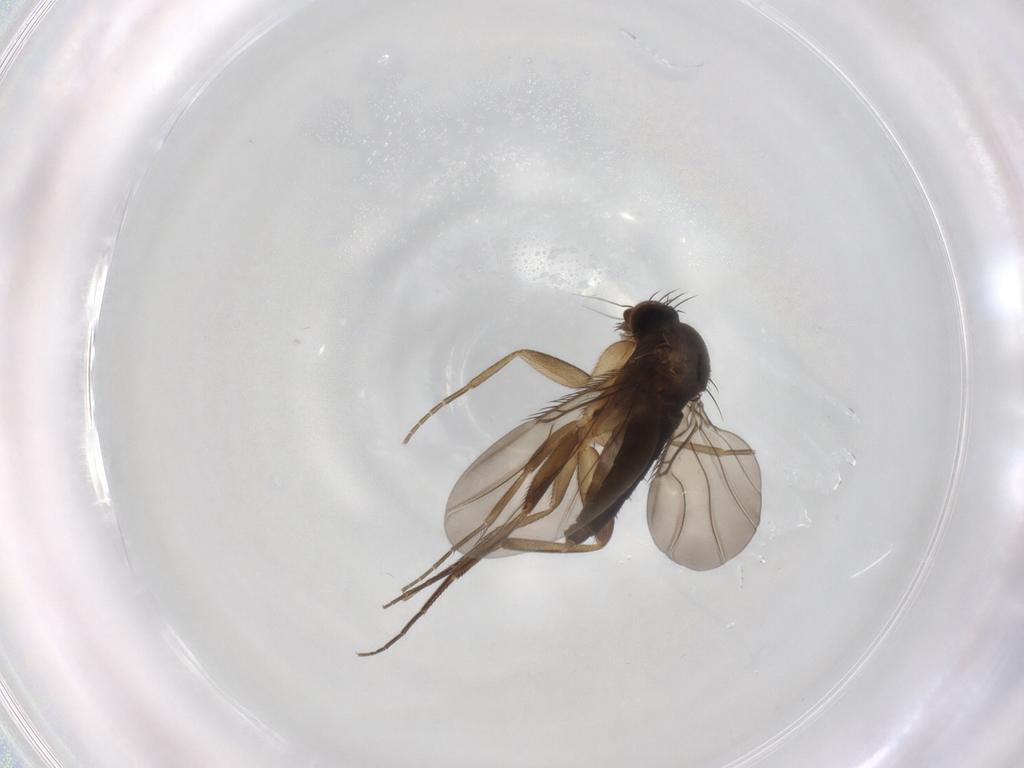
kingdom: Animalia
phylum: Arthropoda
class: Insecta
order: Diptera
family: Phoridae
